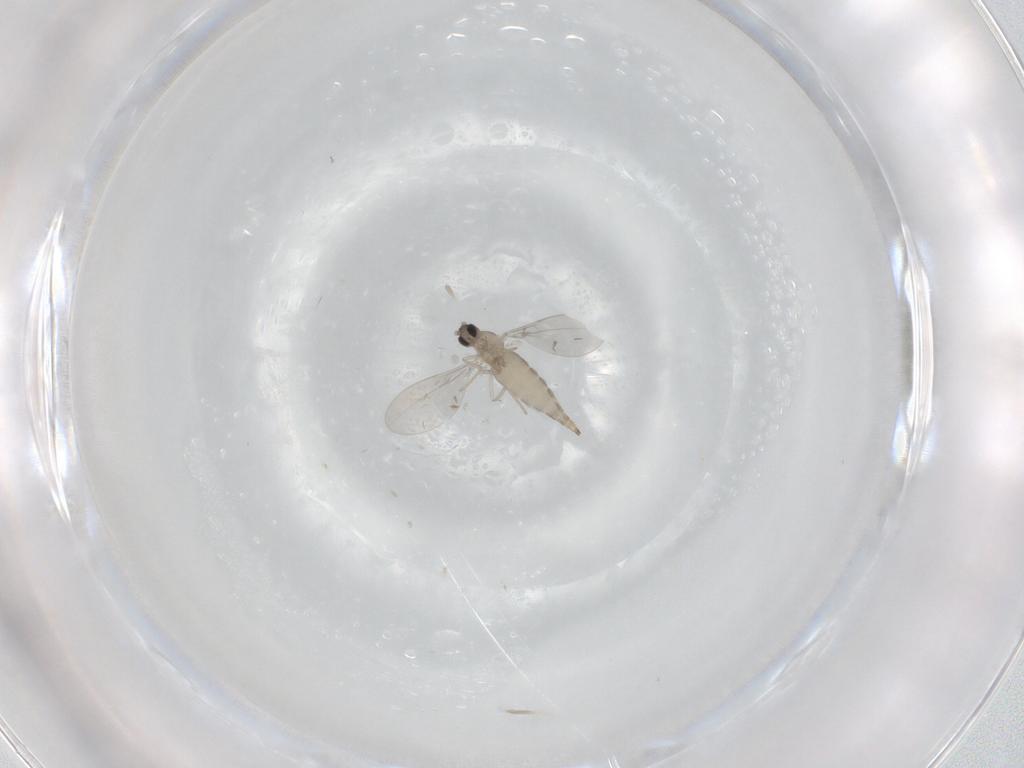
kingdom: Animalia
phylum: Arthropoda
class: Insecta
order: Diptera
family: Cecidomyiidae
